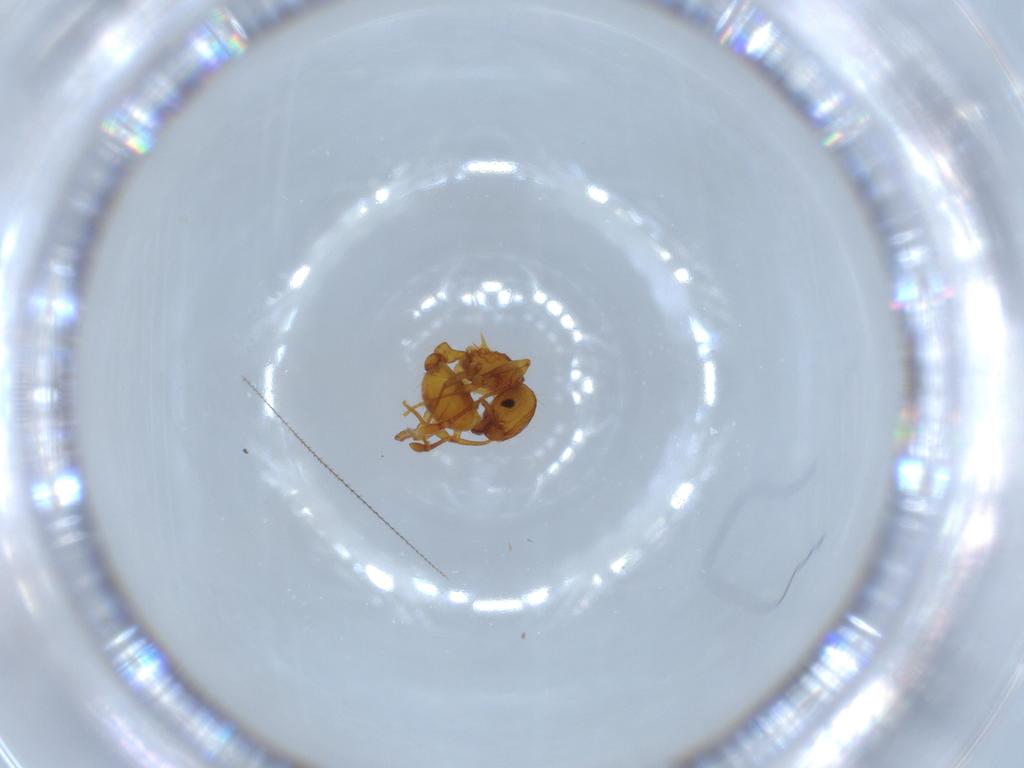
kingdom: Animalia
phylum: Arthropoda
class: Insecta
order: Hymenoptera
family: Formicidae
